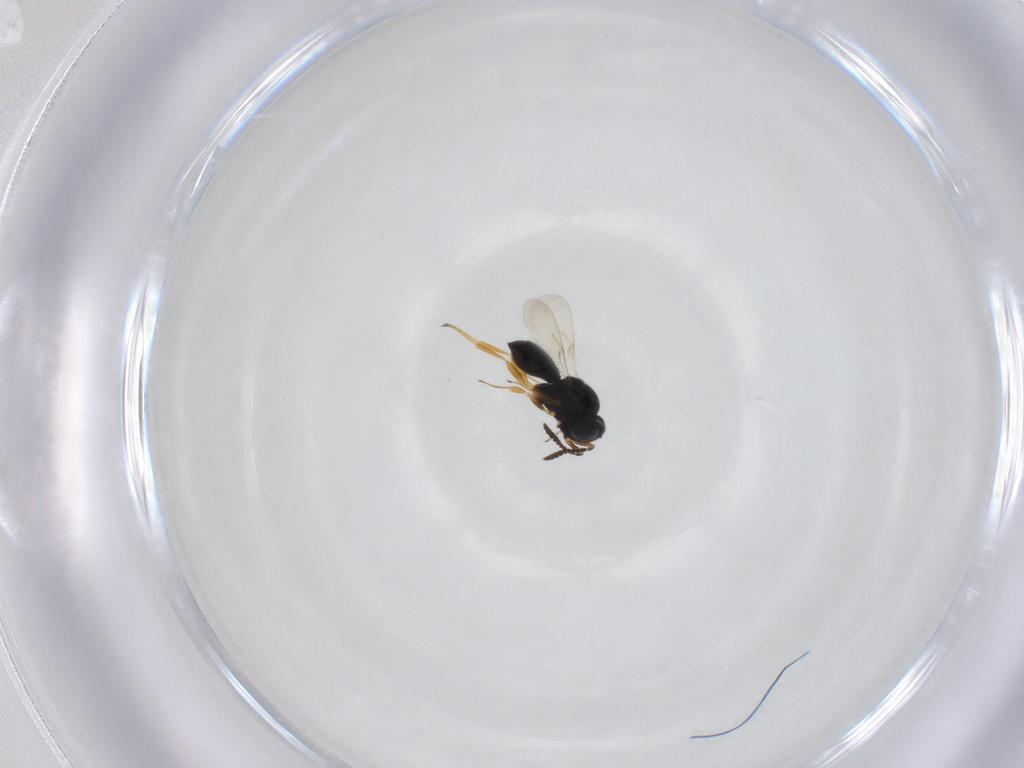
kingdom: Animalia
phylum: Arthropoda
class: Insecta
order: Hymenoptera
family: Scelionidae
